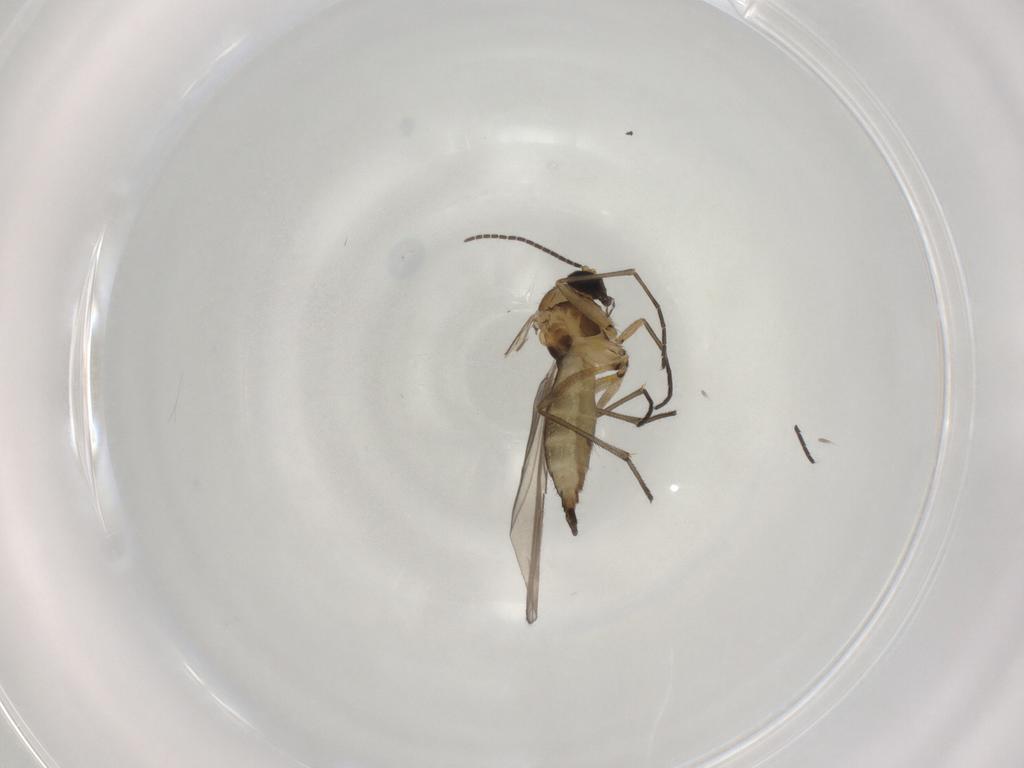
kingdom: Animalia
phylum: Arthropoda
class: Insecta
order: Diptera
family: Sciaridae
